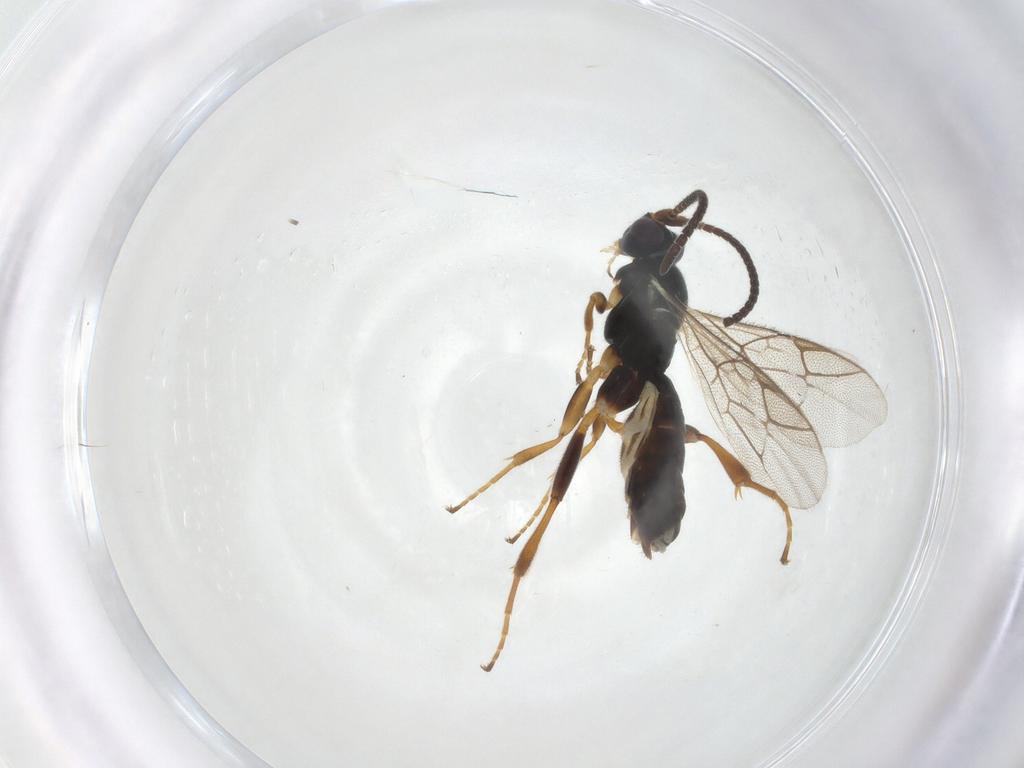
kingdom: Animalia
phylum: Arthropoda
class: Insecta
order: Hymenoptera
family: Ichneumonidae
